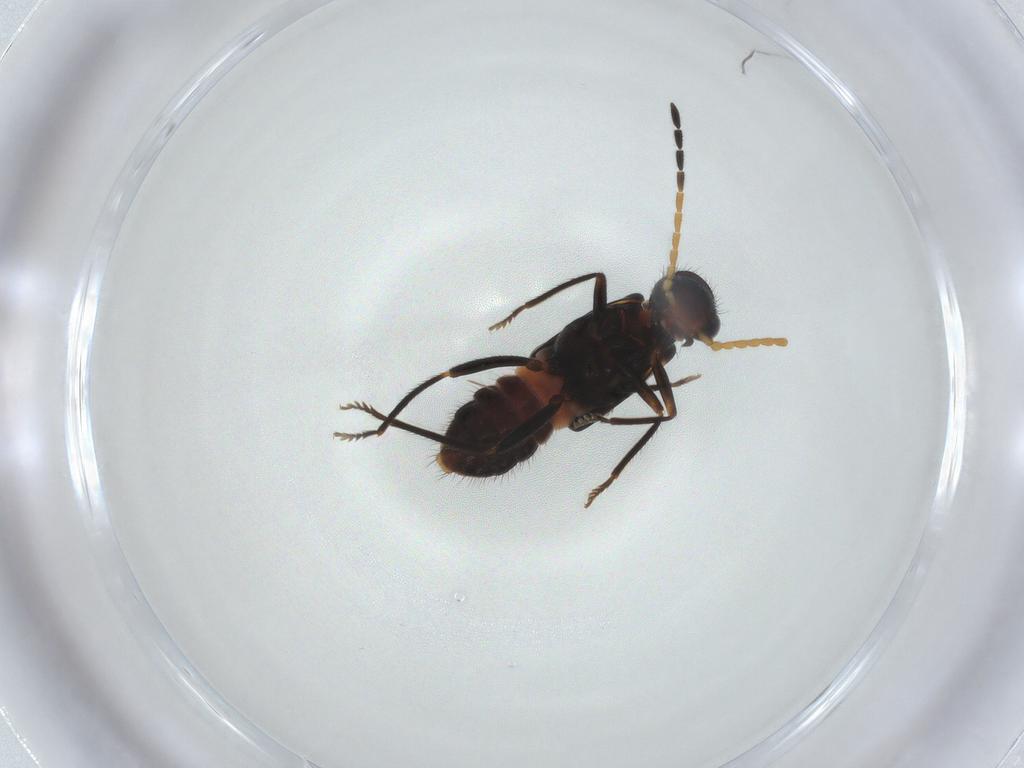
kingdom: Animalia
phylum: Arthropoda
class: Insecta
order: Coleoptera
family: Melyridae
